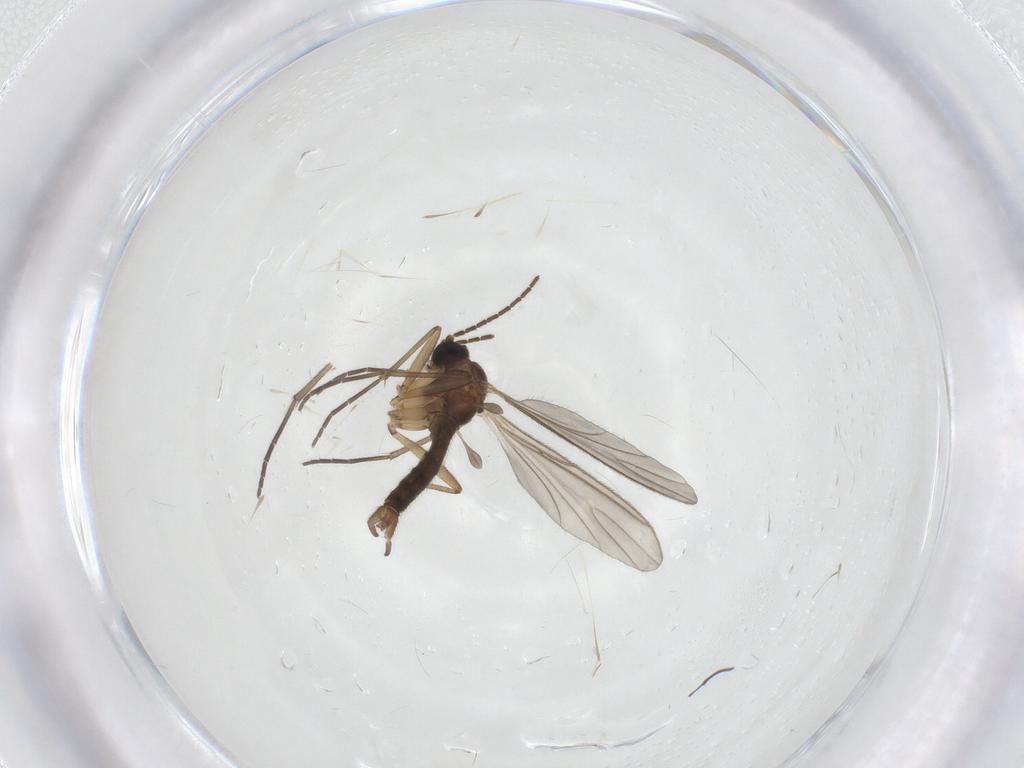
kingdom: Animalia
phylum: Arthropoda
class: Insecta
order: Diptera
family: Sciaridae
